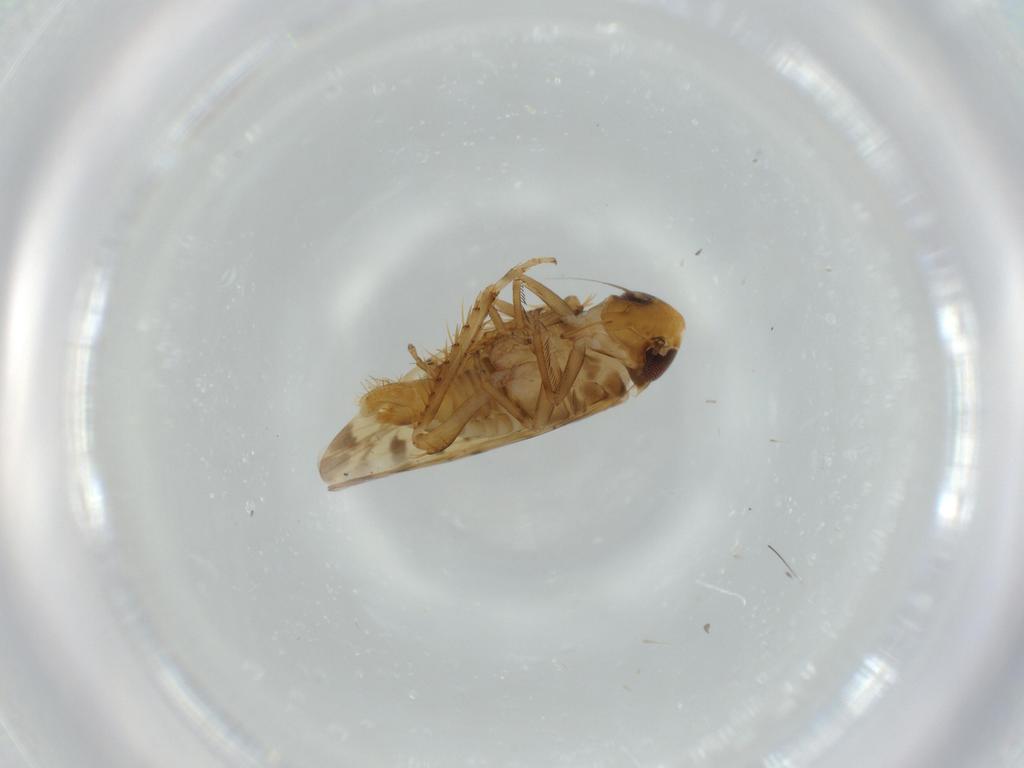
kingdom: Animalia
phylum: Arthropoda
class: Insecta
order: Hemiptera
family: Cicadellidae
